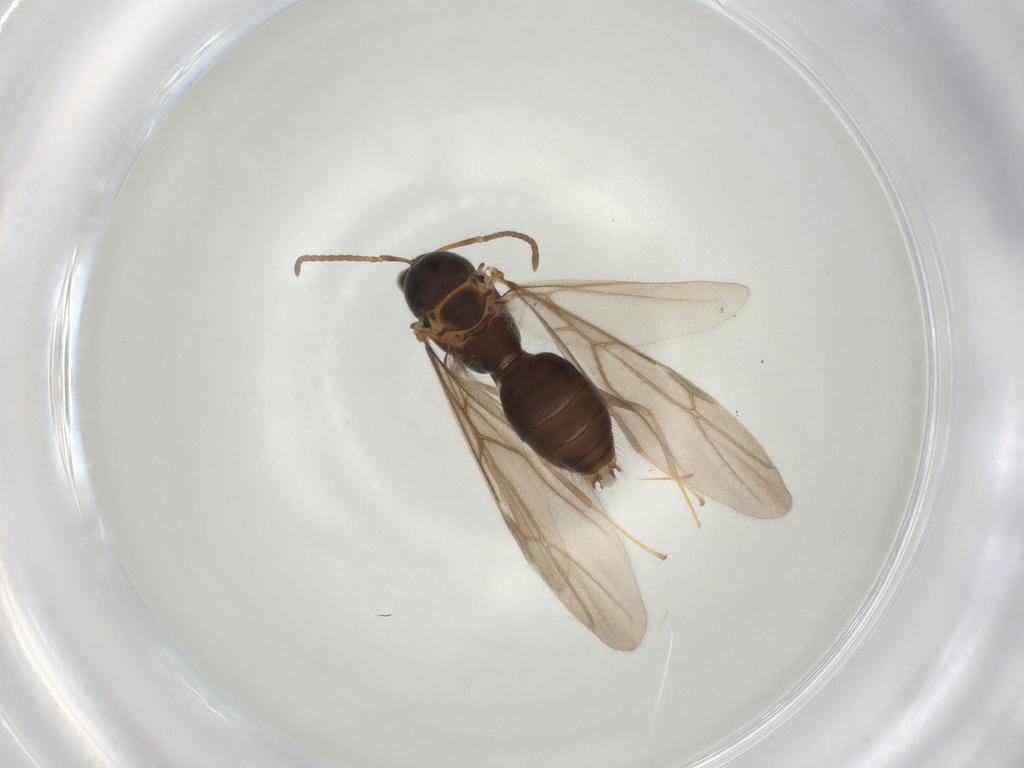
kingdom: Animalia
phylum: Arthropoda
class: Insecta
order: Hymenoptera
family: Formicidae
